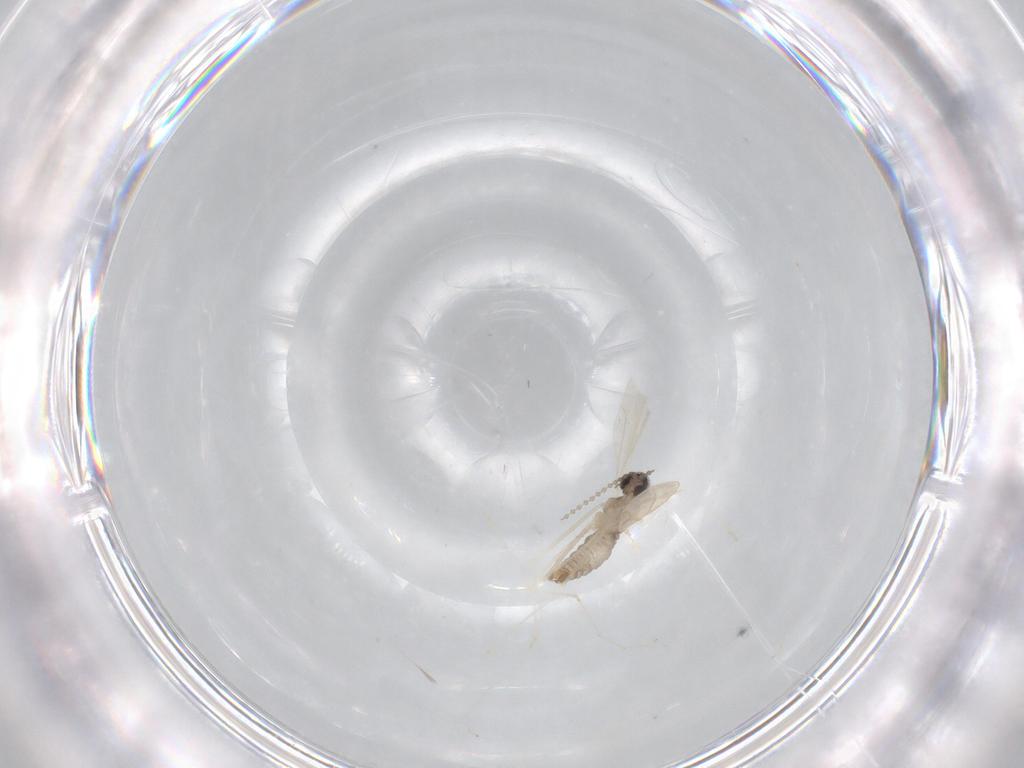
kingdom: Animalia
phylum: Arthropoda
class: Insecta
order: Diptera
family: Cecidomyiidae
